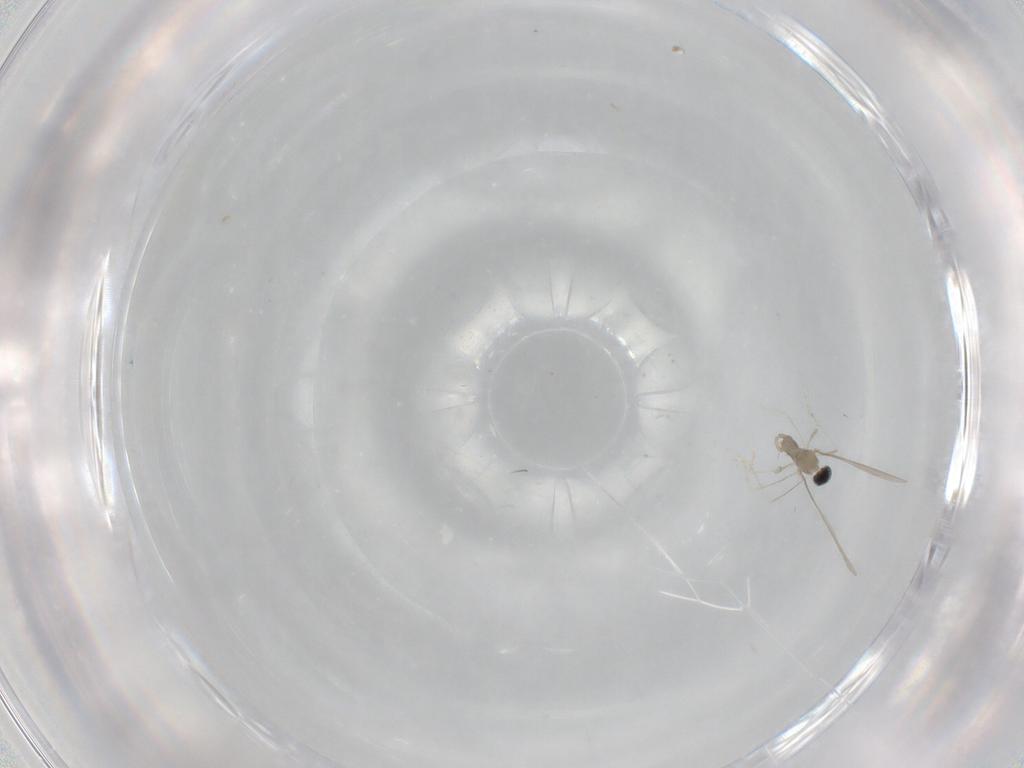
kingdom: Animalia
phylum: Arthropoda
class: Insecta
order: Diptera
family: Cecidomyiidae
